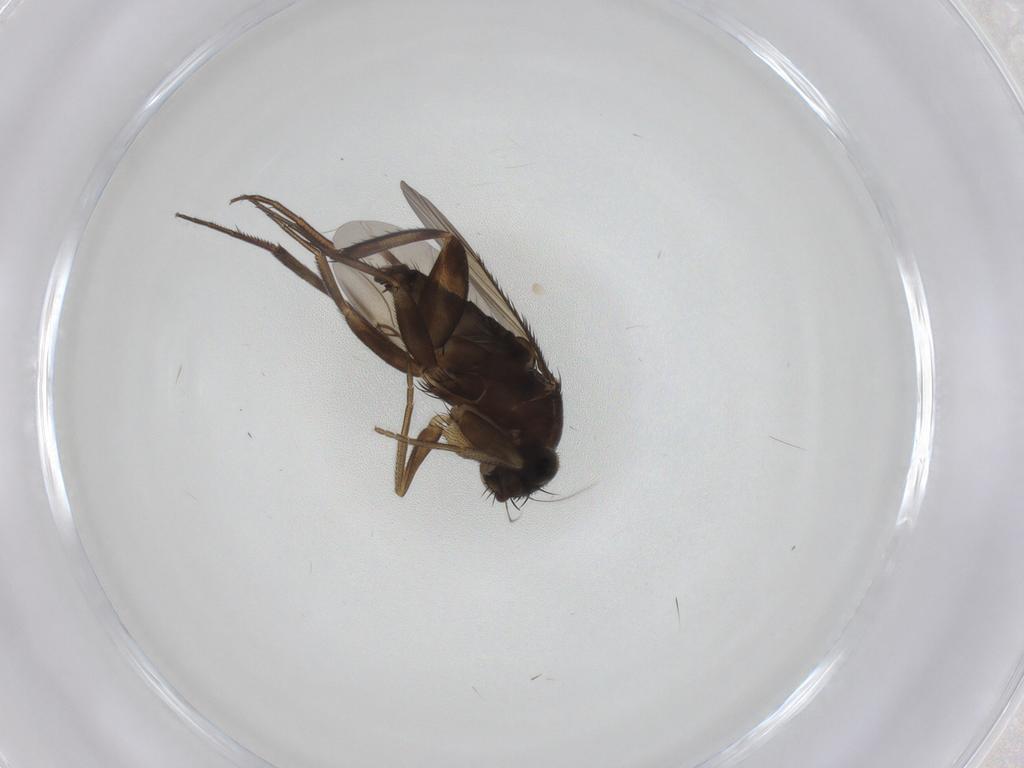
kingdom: Animalia
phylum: Arthropoda
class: Insecta
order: Diptera
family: Phoridae
